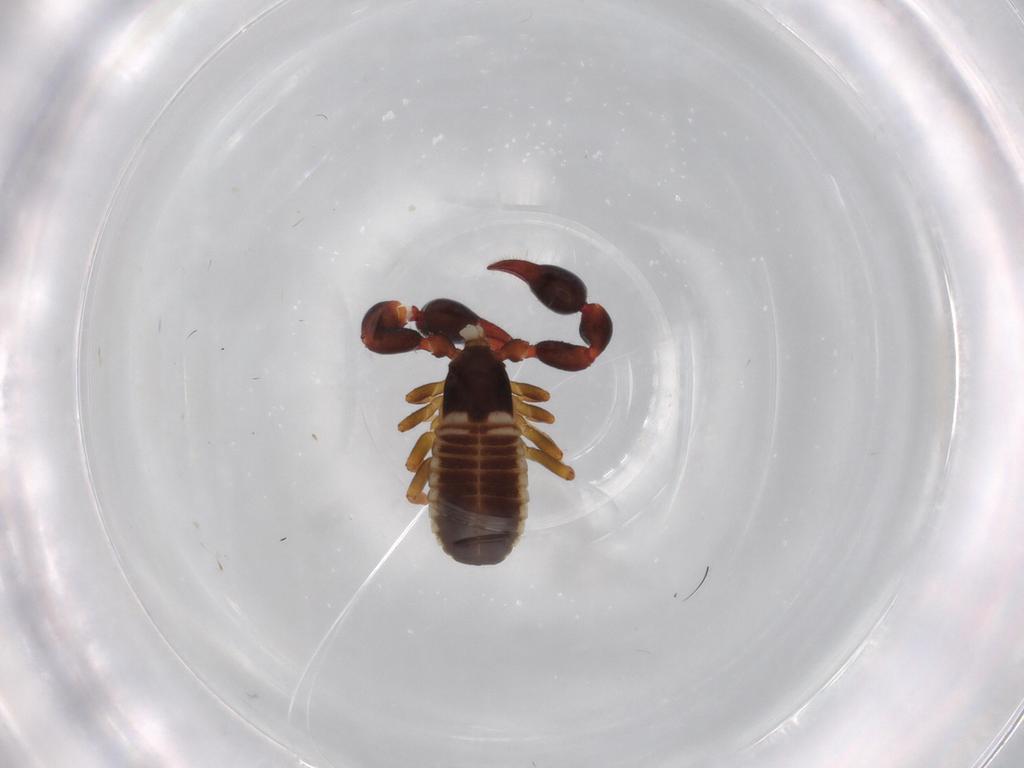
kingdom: Animalia
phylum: Arthropoda
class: Arachnida
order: Pseudoscorpiones
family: Chernetidae
